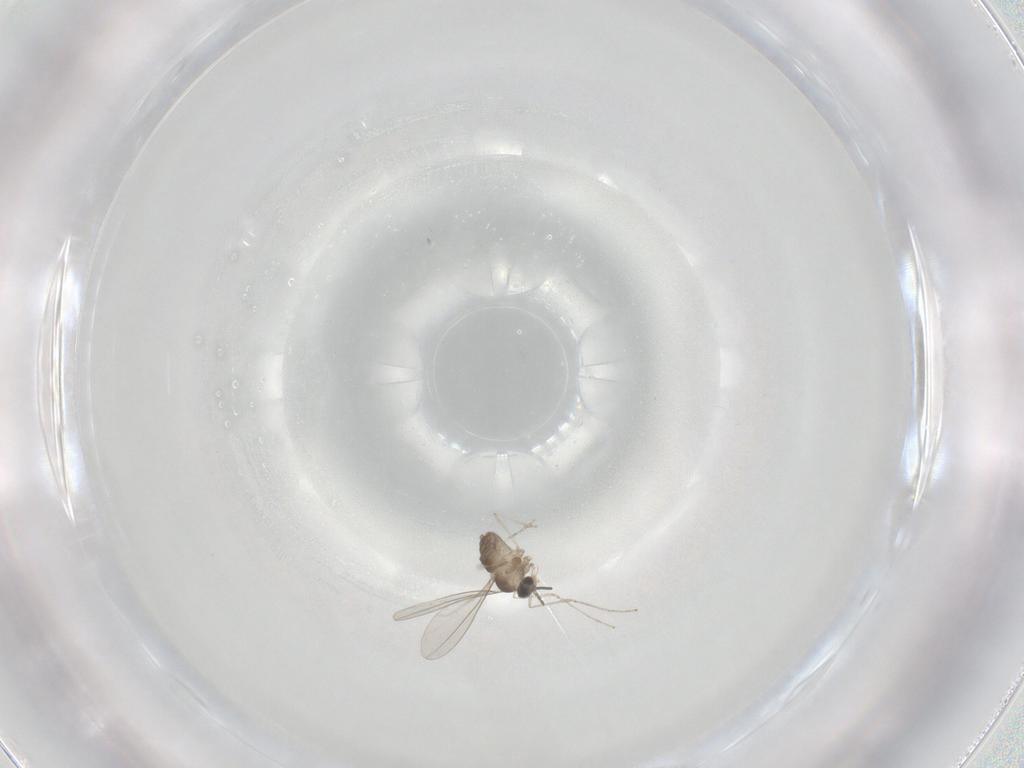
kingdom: Animalia
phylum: Arthropoda
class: Insecta
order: Diptera
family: Cecidomyiidae
